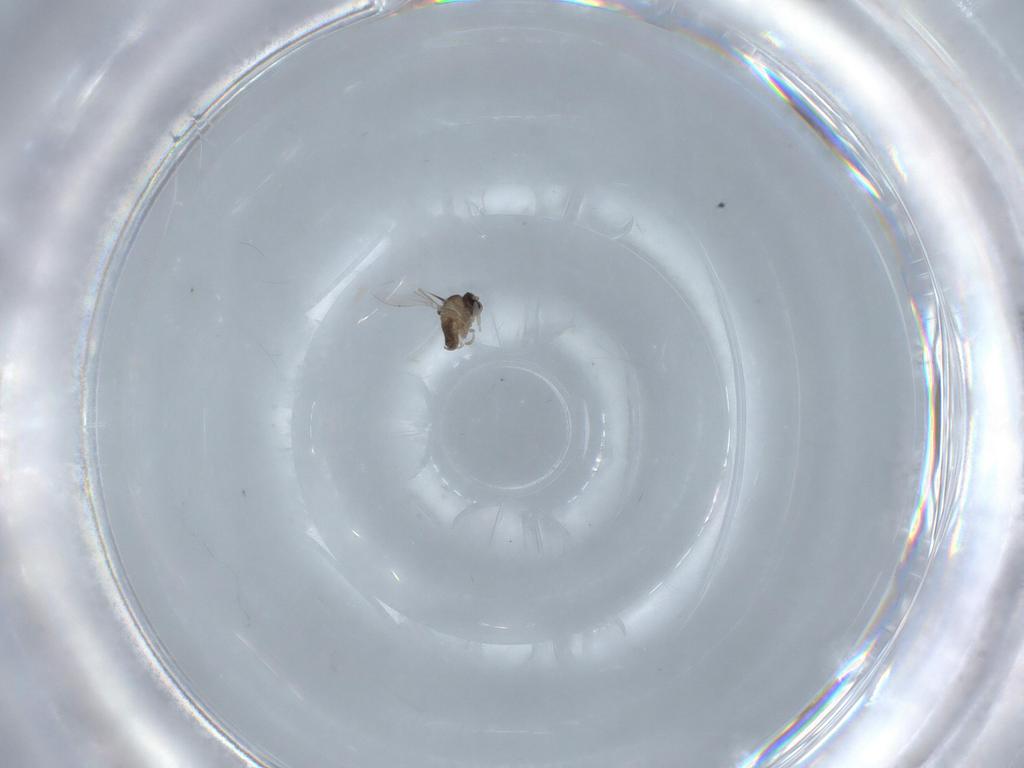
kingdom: Animalia
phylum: Arthropoda
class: Insecta
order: Diptera
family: Cecidomyiidae
